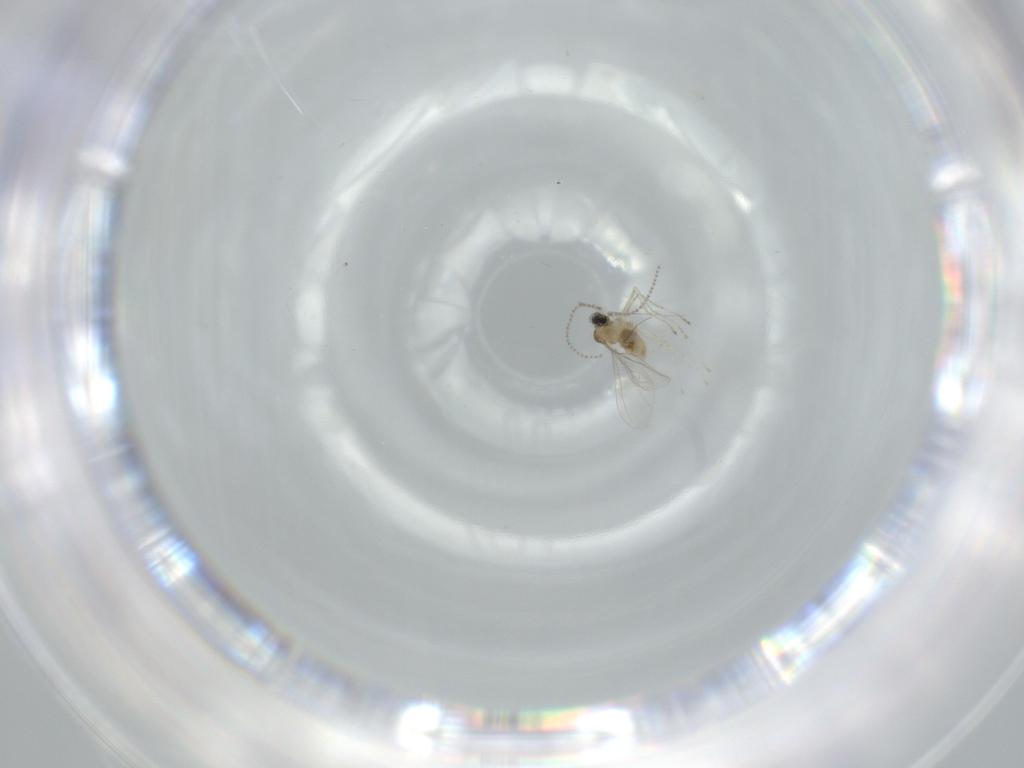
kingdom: Animalia
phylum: Arthropoda
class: Insecta
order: Diptera
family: Cecidomyiidae
